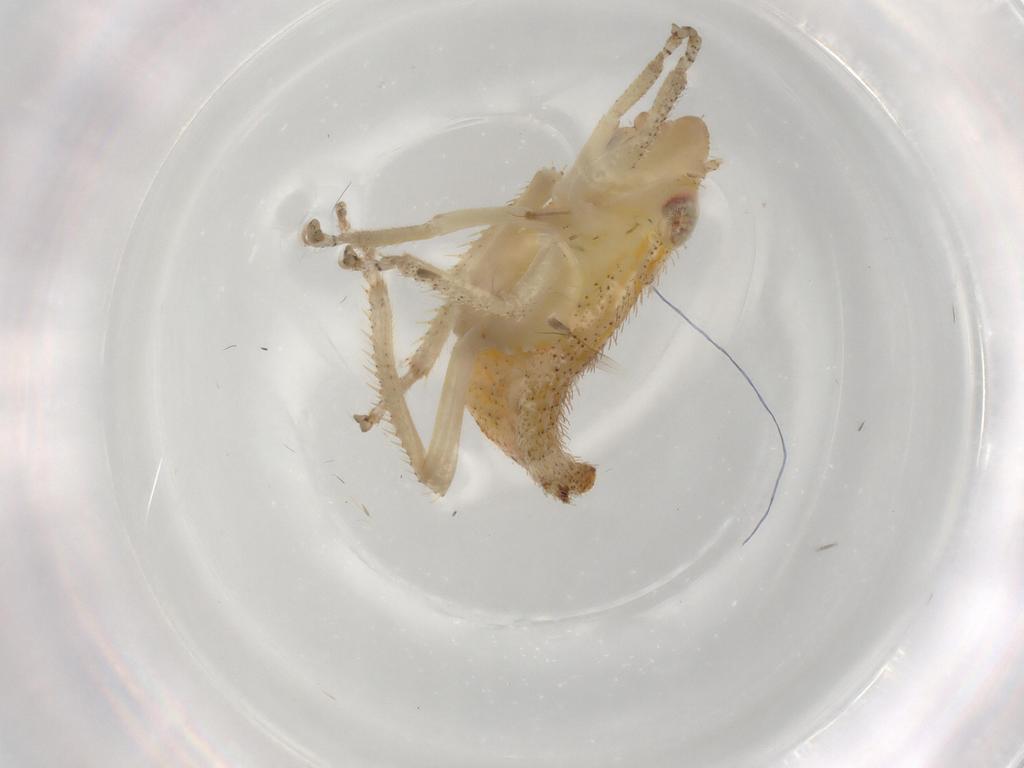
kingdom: Animalia
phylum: Arthropoda
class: Insecta
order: Hemiptera
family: Cicadellidae
